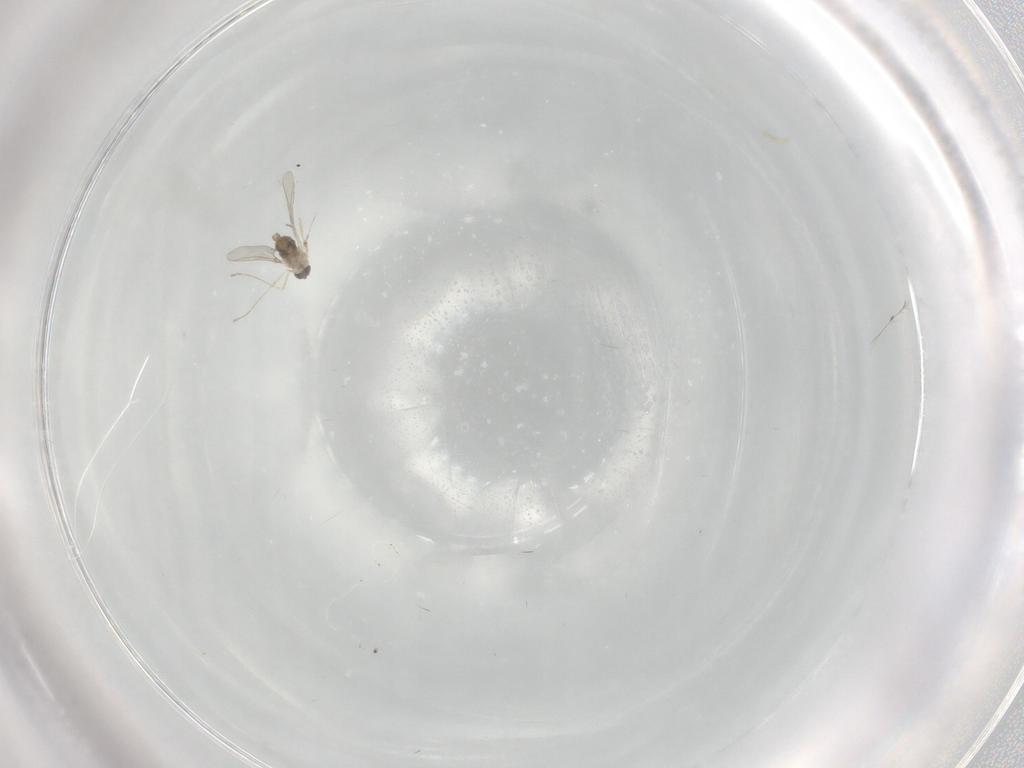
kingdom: Animalia
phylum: Arthropoda
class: Insecta
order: Diptera
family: Cecidomyiidae
